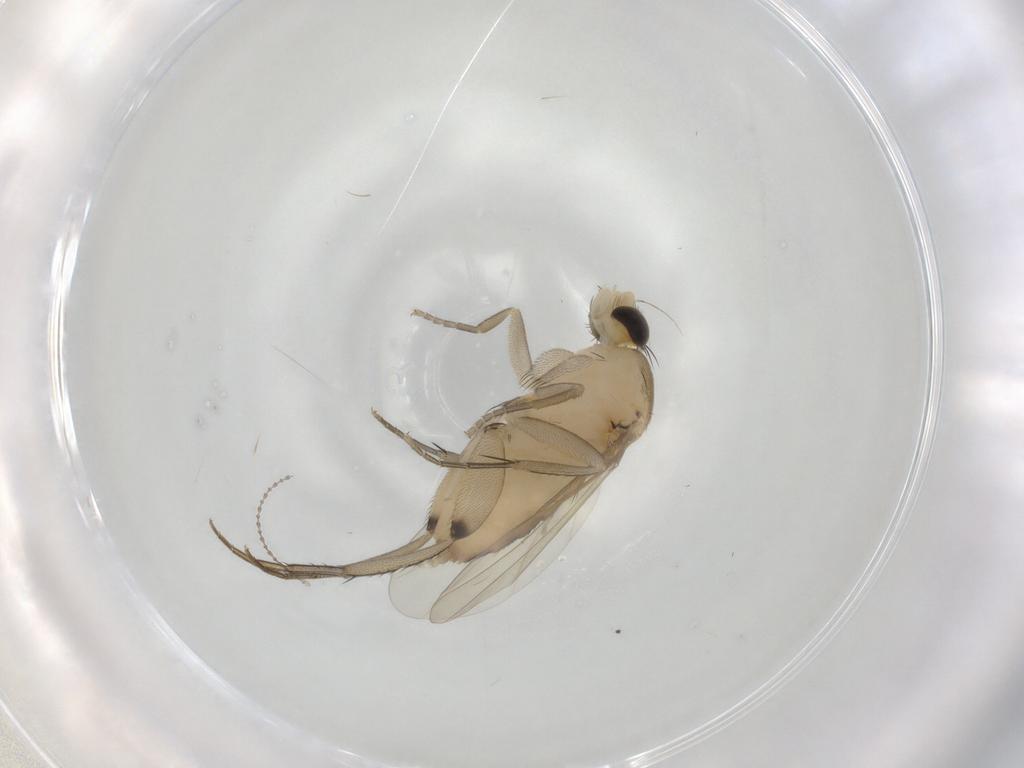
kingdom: Animalia
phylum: Arthropoda
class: Insecta
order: Diptera
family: Phoridae
